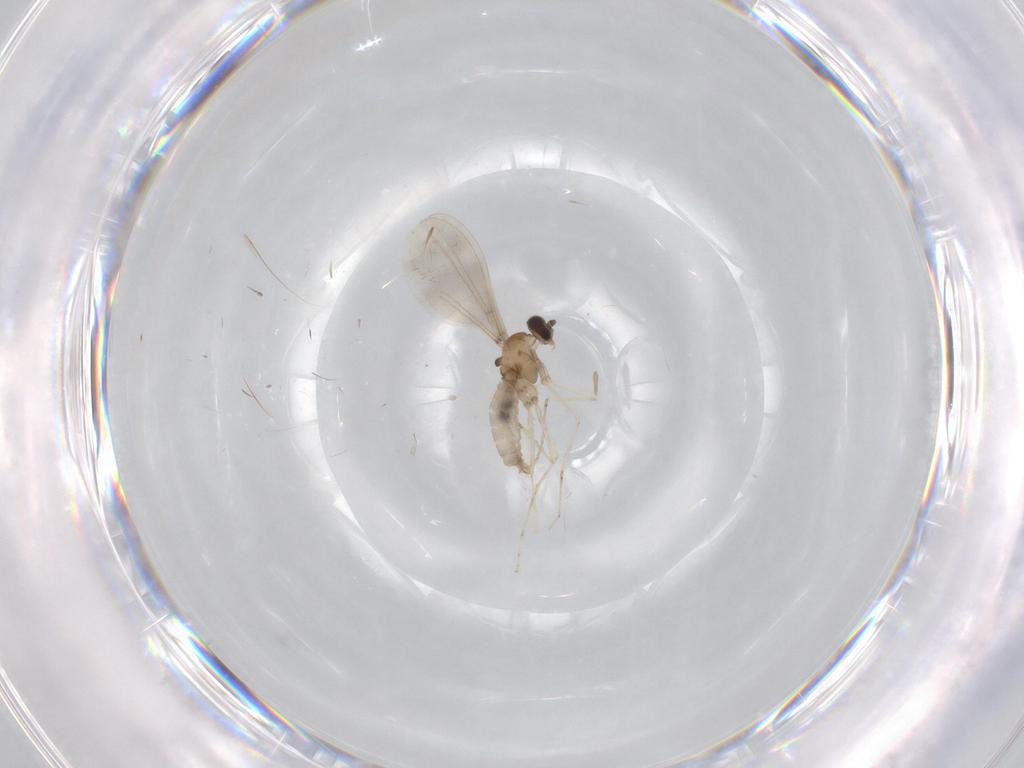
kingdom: Animalia
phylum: Arthropoda
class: Insecta
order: Diptera
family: Cecidomyiidae
